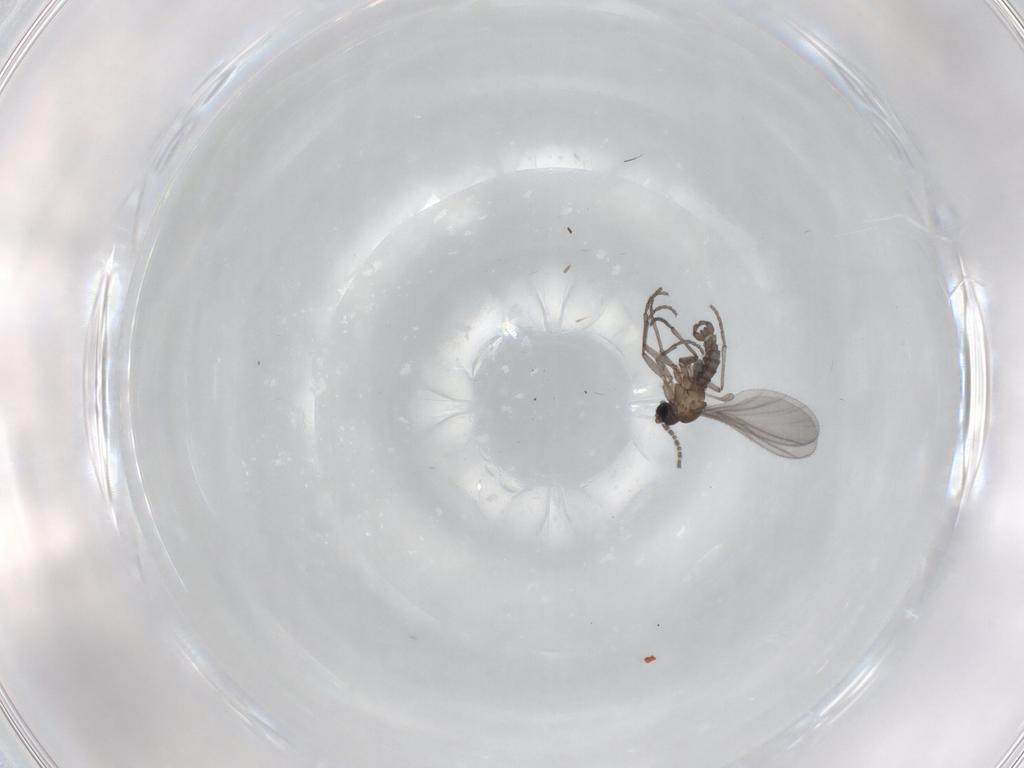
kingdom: Animalia
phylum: Arthropoda
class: Insecta
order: Diptera
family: Sciaridae
